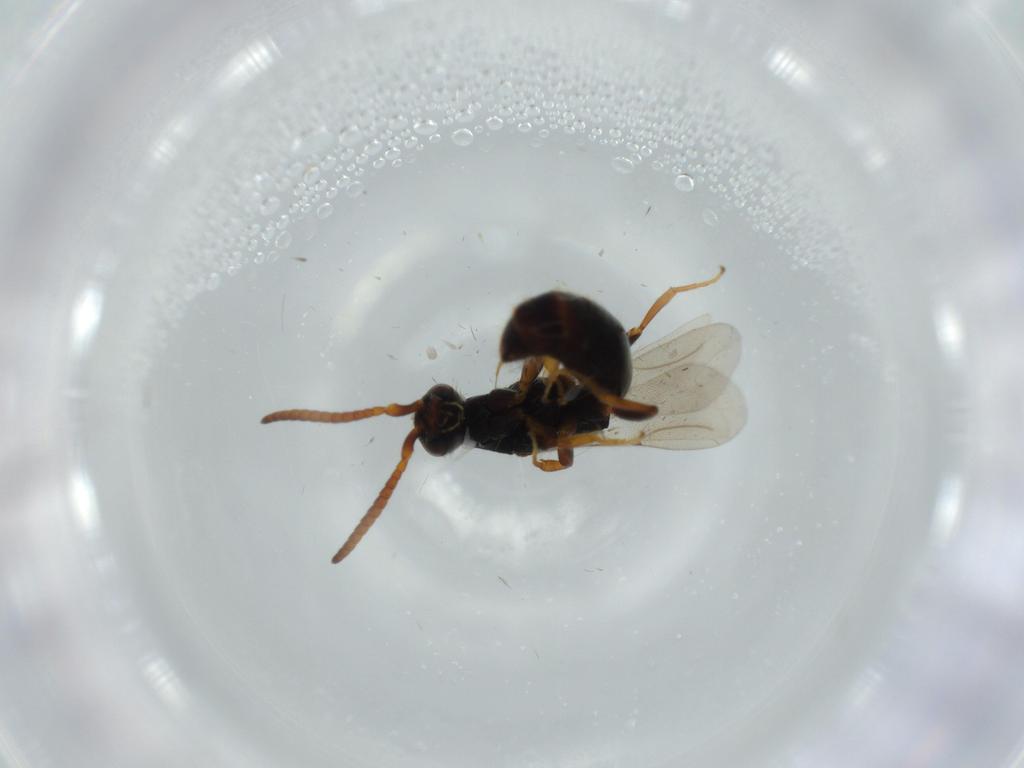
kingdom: Animalia
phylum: Arthropoda
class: Insecta
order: Hymenoptera
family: Bethylidae
